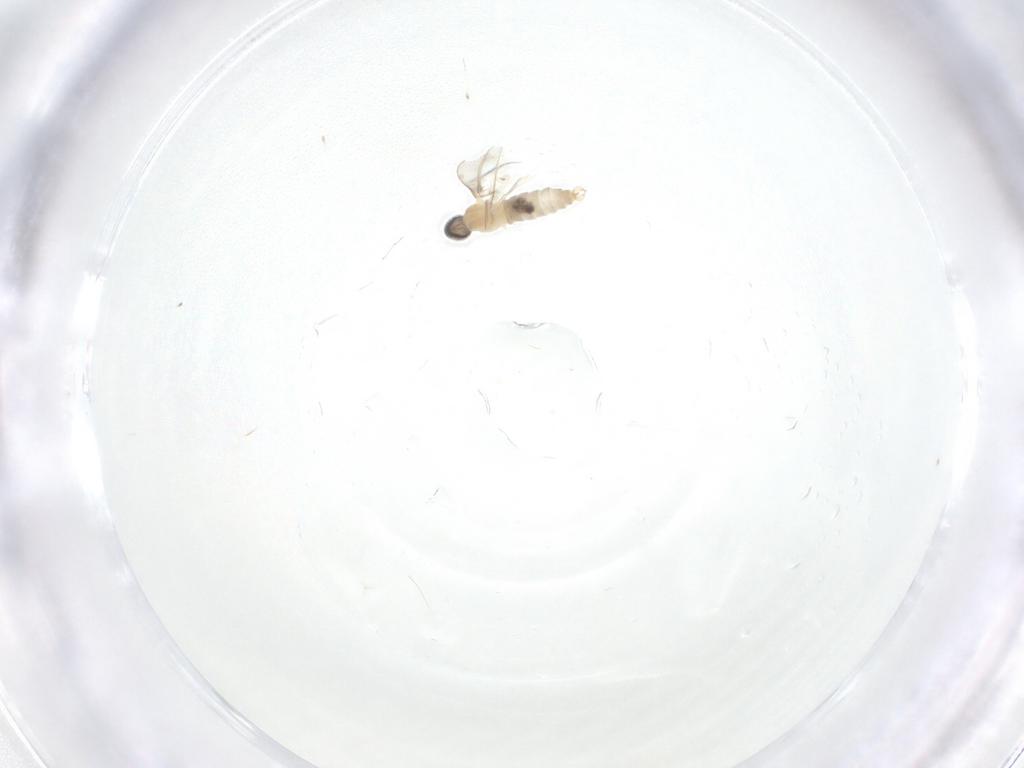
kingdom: Animalia
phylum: Arthropoda
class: Insecta
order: Diptera
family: Cecidomyiidae
